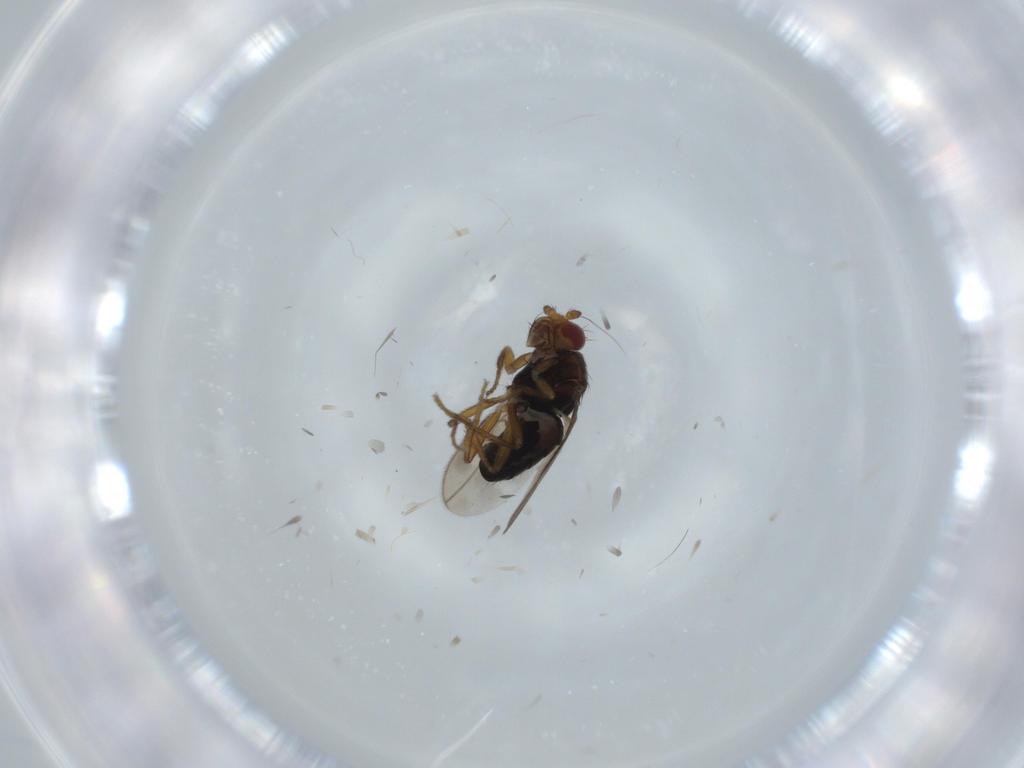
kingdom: Animalia
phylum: Arthropoda
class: Insecta
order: Diptera
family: Sphaeroceridae
